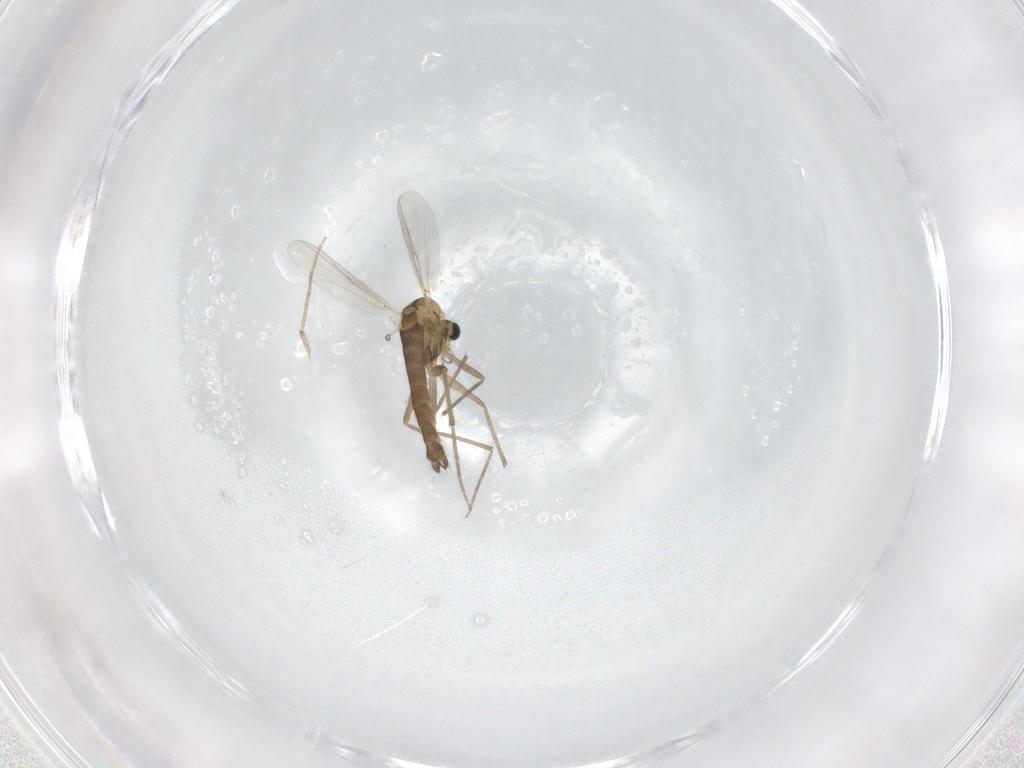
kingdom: Animalia
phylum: Arthropoda
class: Insecta
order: Diptera
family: Chironomidae
